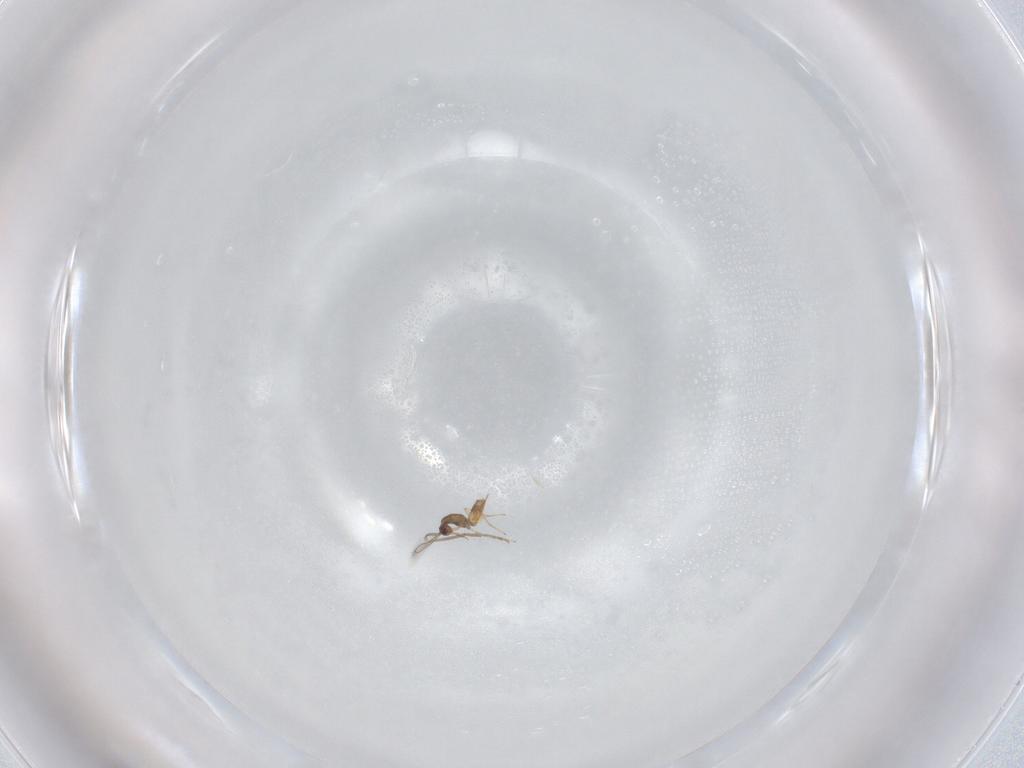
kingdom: Animalia
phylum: Arthropoda
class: Insecta
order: Hymenoptera
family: Mymaridae
